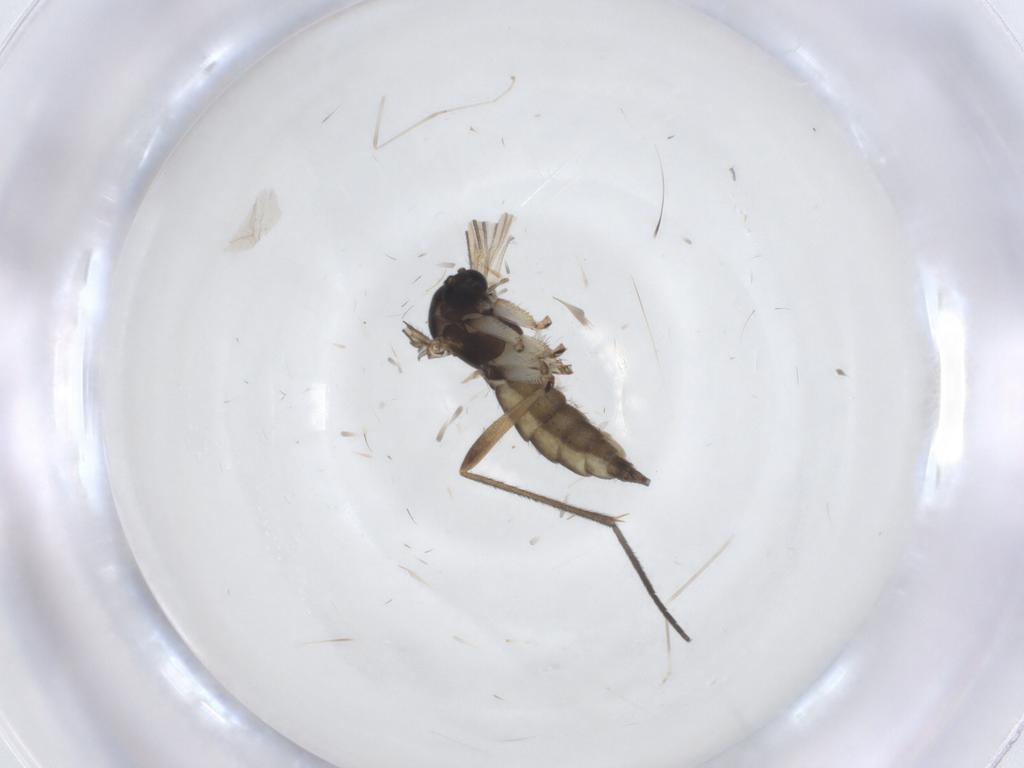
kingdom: Animalia
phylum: Arthropoda
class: Insecta
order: Diptera
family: Sciaridae
